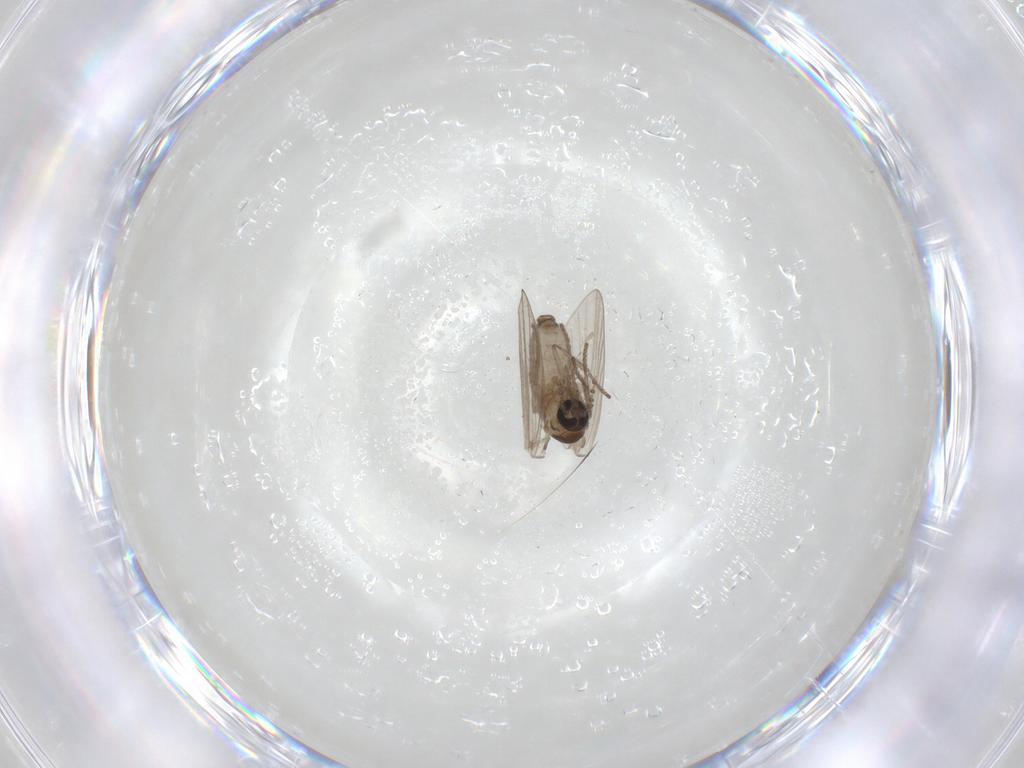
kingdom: Animalia
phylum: Arthropoda
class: Insecta
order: Diptera
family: Psychodidae
